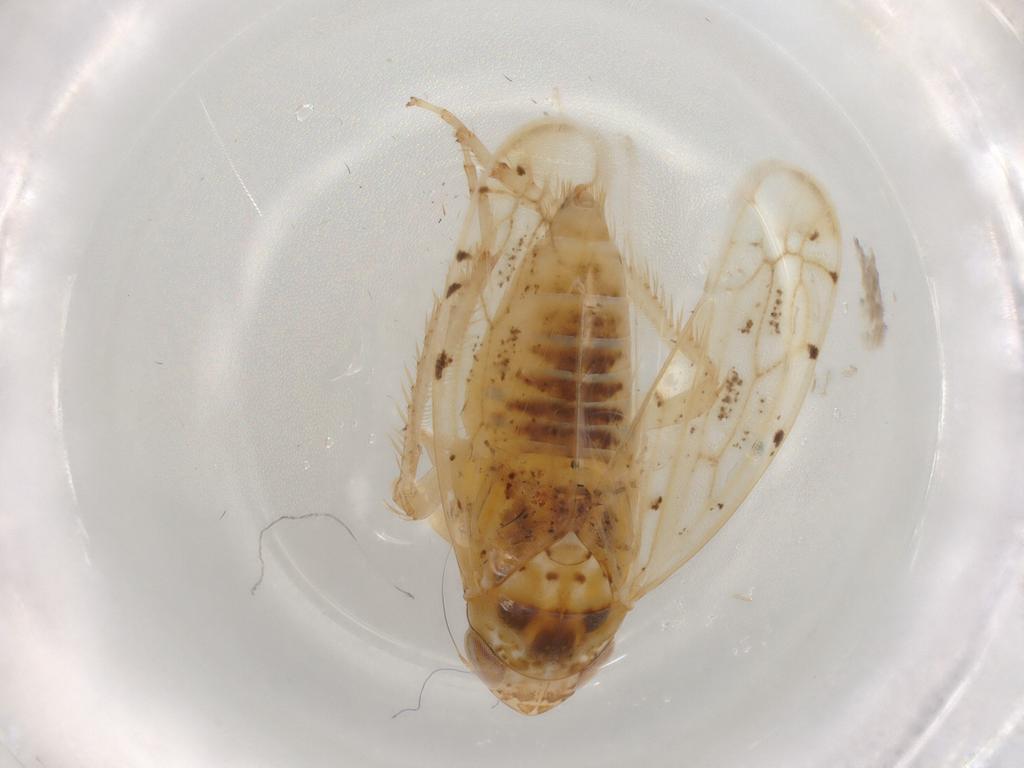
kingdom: Animalia
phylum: Arthropoda
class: Insecta
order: Hemiptera
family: Cicadellidae
